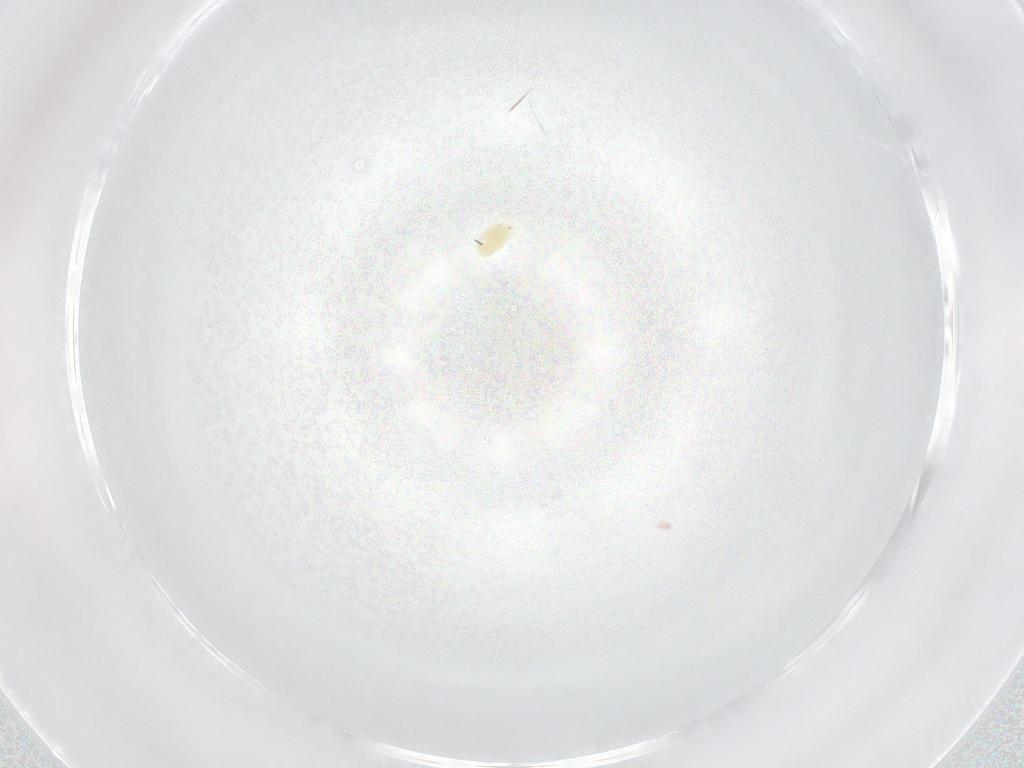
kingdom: Animalia
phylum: Arthropoda
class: Arachnida
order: Trombidiformes
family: Tetranychidae
